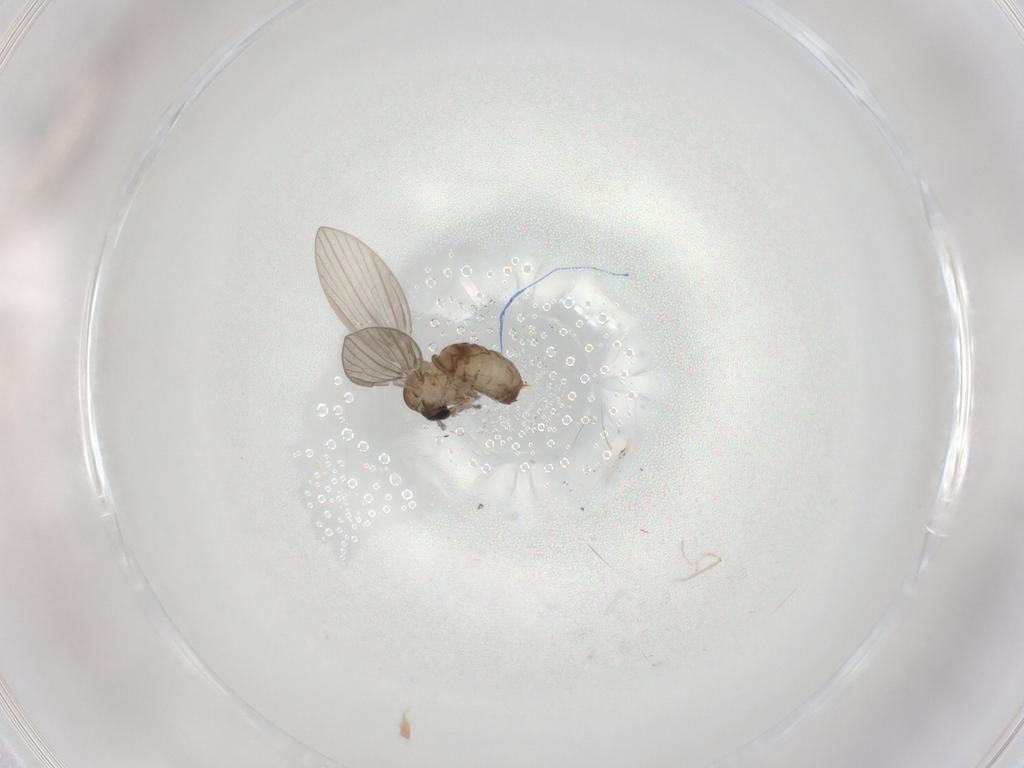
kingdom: Animalia
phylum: Arthropoda
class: Insecta
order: Diptera
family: Psychodidae
